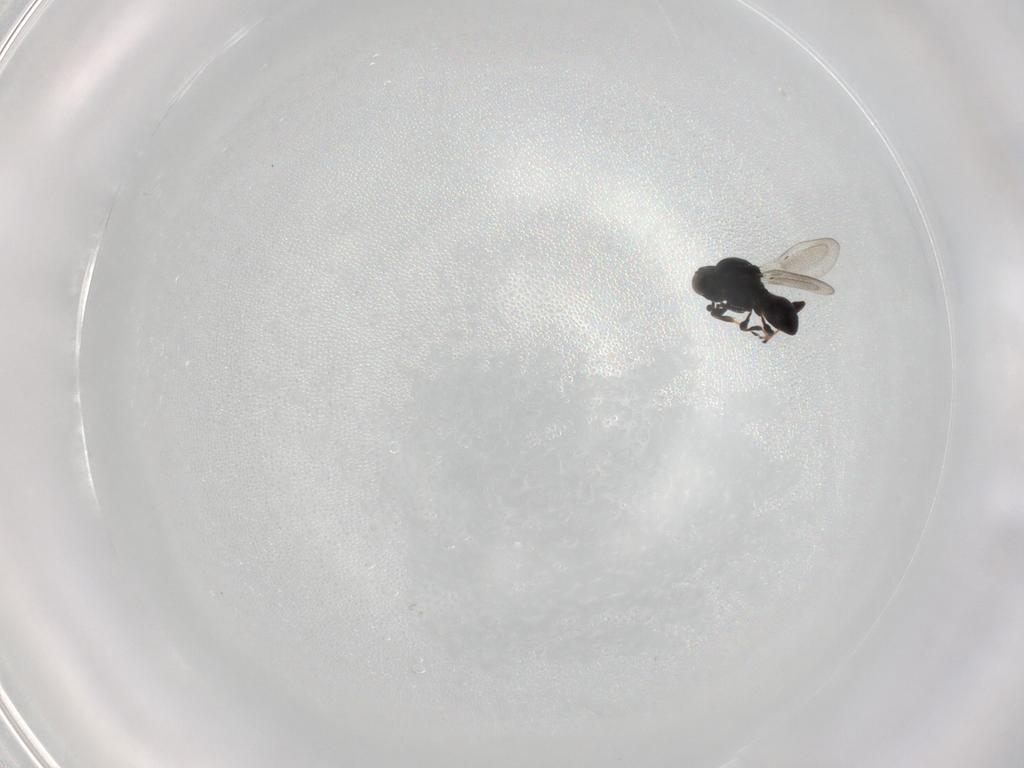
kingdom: Animalia
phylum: Arthropoda
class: Insecta
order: Hymenoptera
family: Platygastridae
